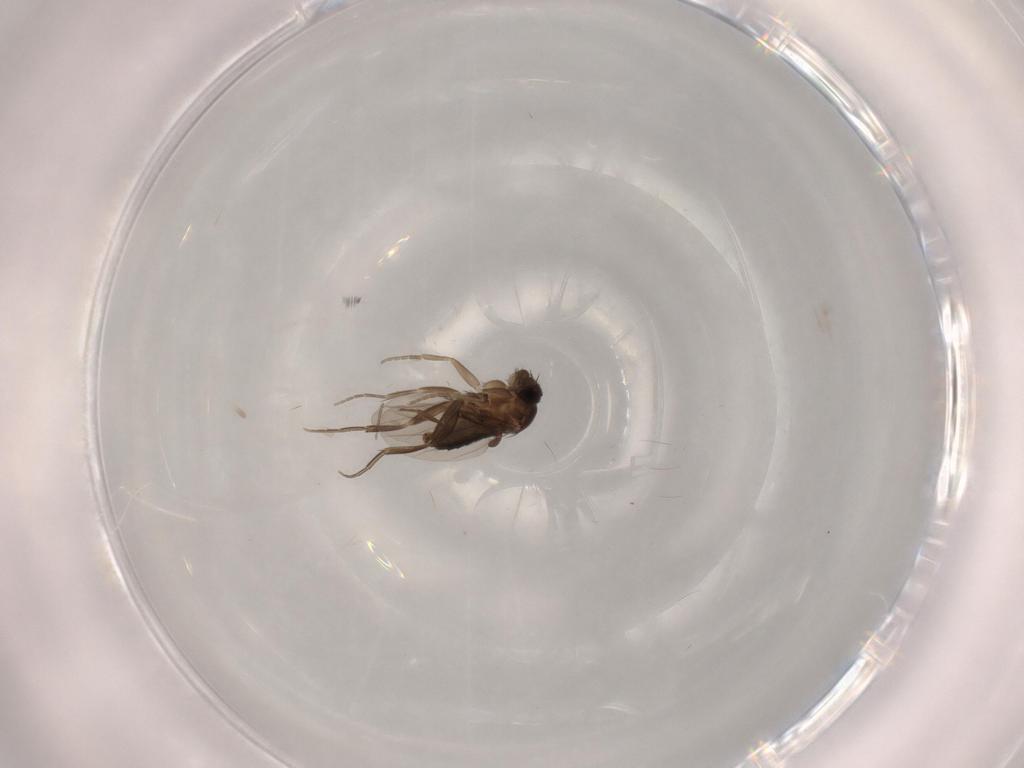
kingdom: Animalia
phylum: Arthropoda
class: Insecta
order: Diptera
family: Phoridae
